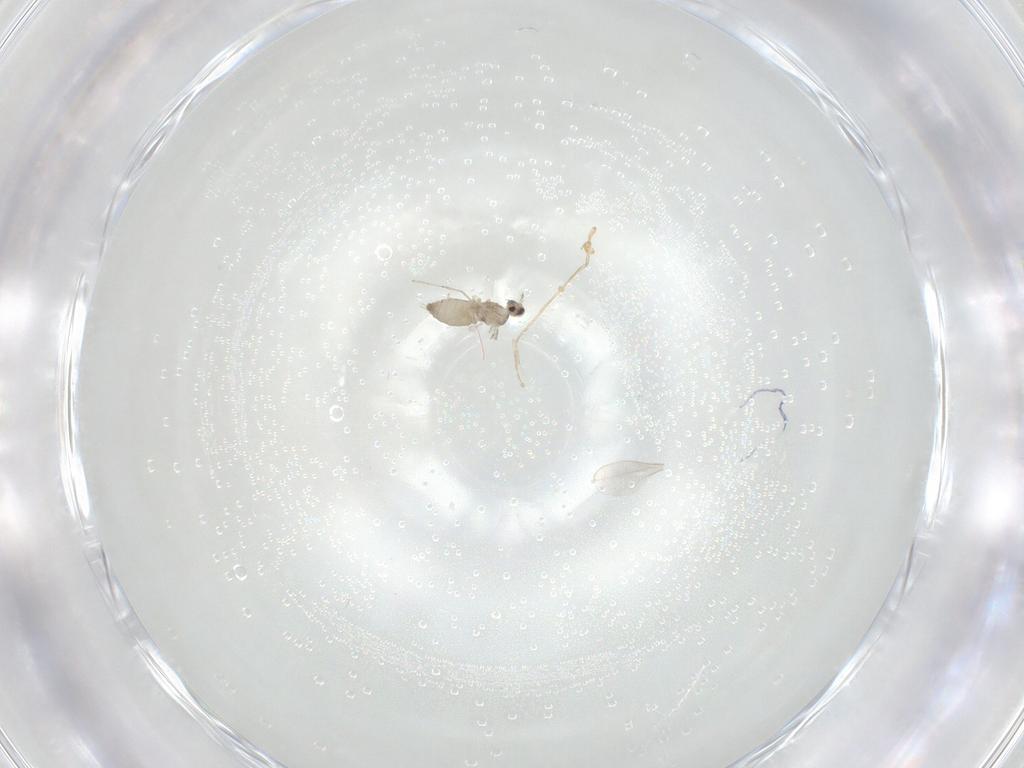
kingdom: Animalia
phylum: Arthropoda
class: Insecta
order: Diptera
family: Cecidomyiidae
